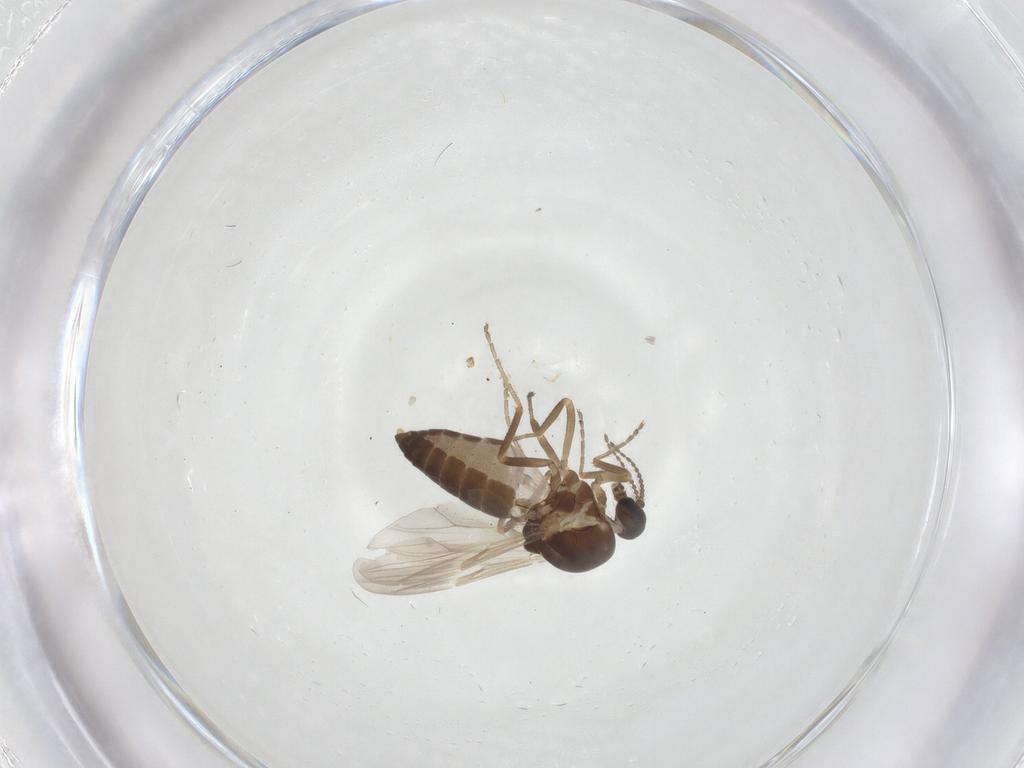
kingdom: Animalia
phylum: Arthropoda
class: Insecta
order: Diptera
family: Ceratopogonidae
